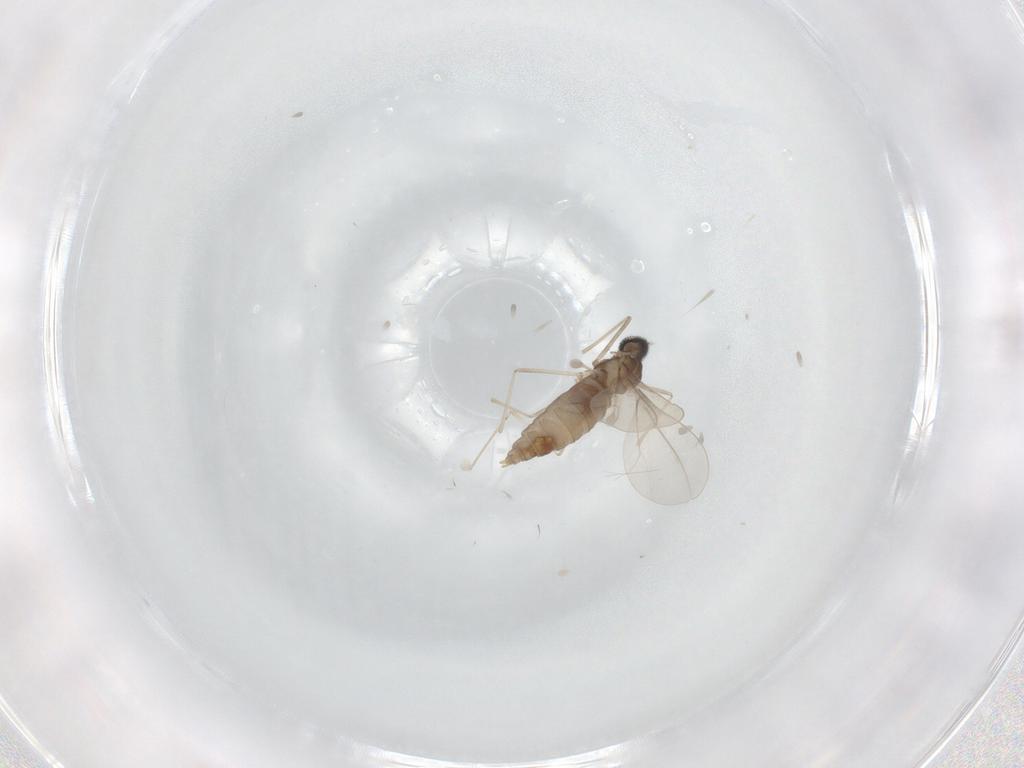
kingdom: Animalia
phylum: Arthropoda
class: Insecta
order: Diptera
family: Cecidomyiidae
